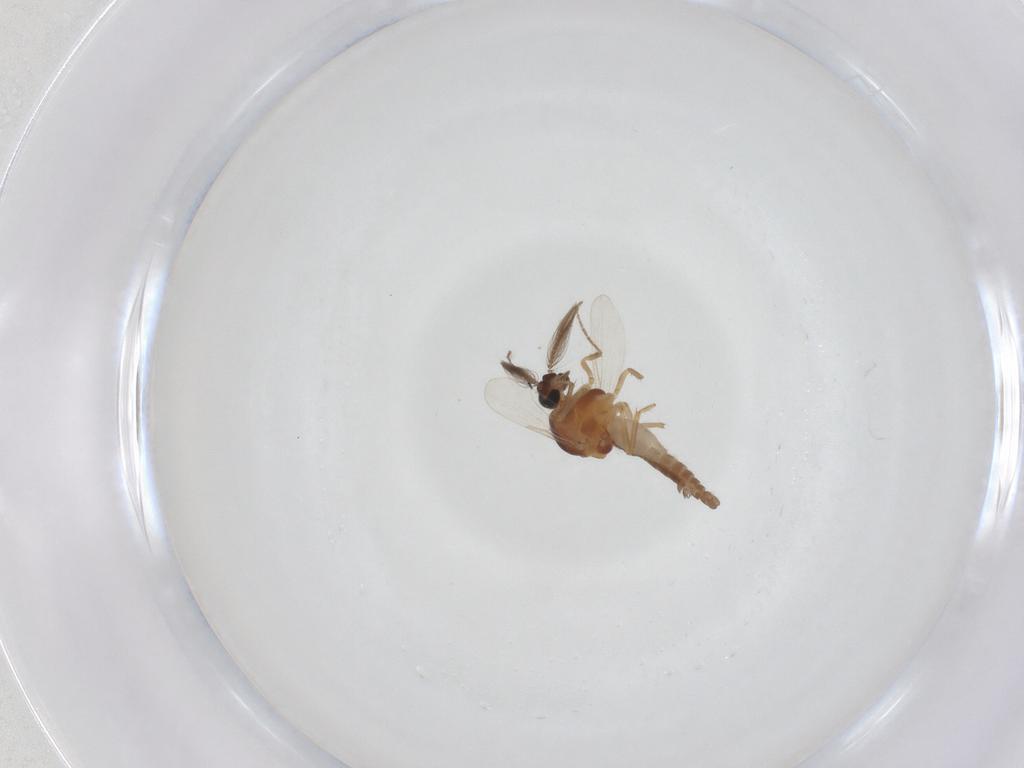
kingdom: Animalia
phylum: Arthropoda
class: Insecta
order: Diptera
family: Ceratopogonidae
